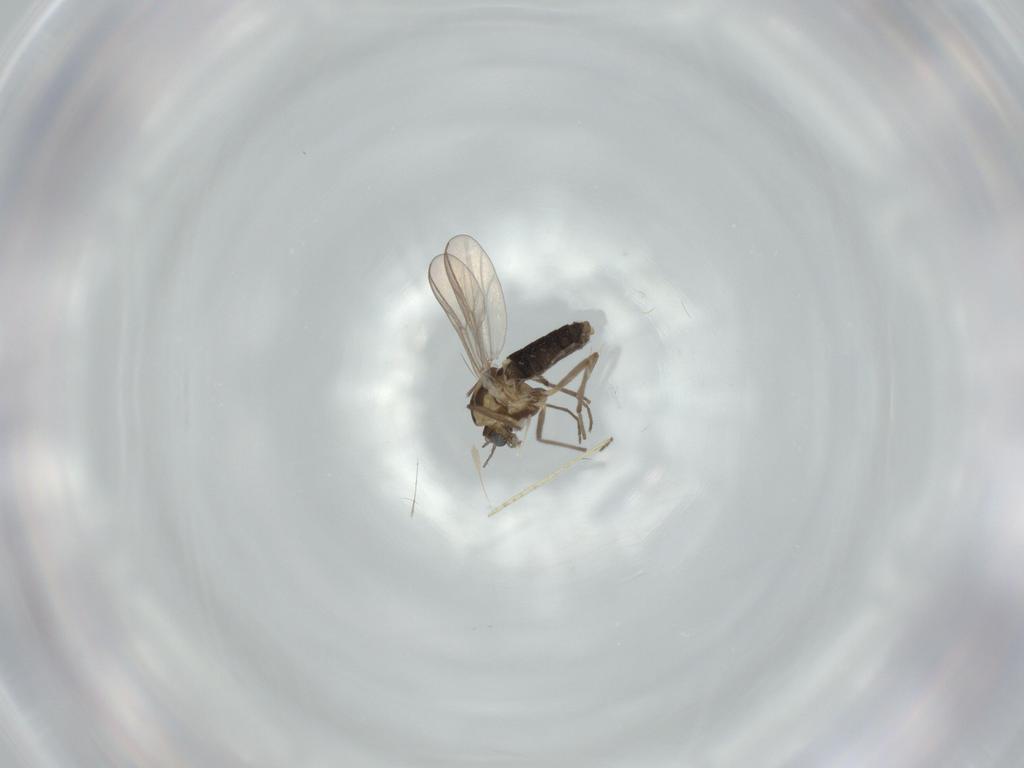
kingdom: Animalia
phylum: Arthropoda
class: Insecta
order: Diptera
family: Chironomidae
